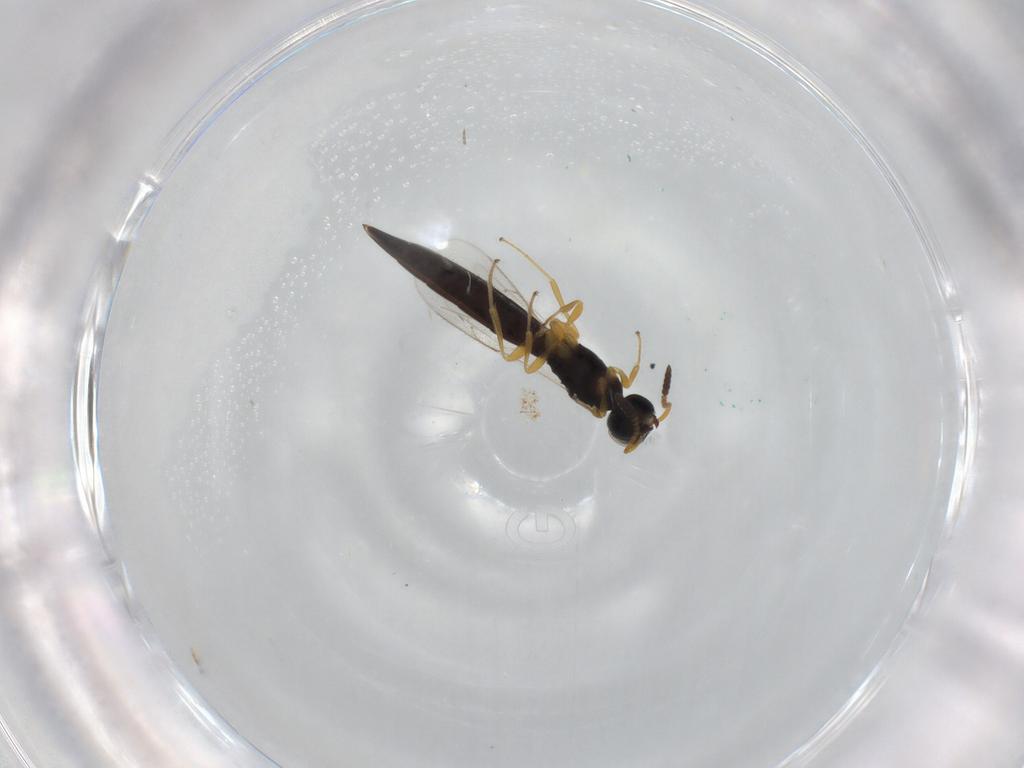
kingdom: Animalia
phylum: Arthropoda
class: Insecta
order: Hymenoptera
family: Scelionidae
